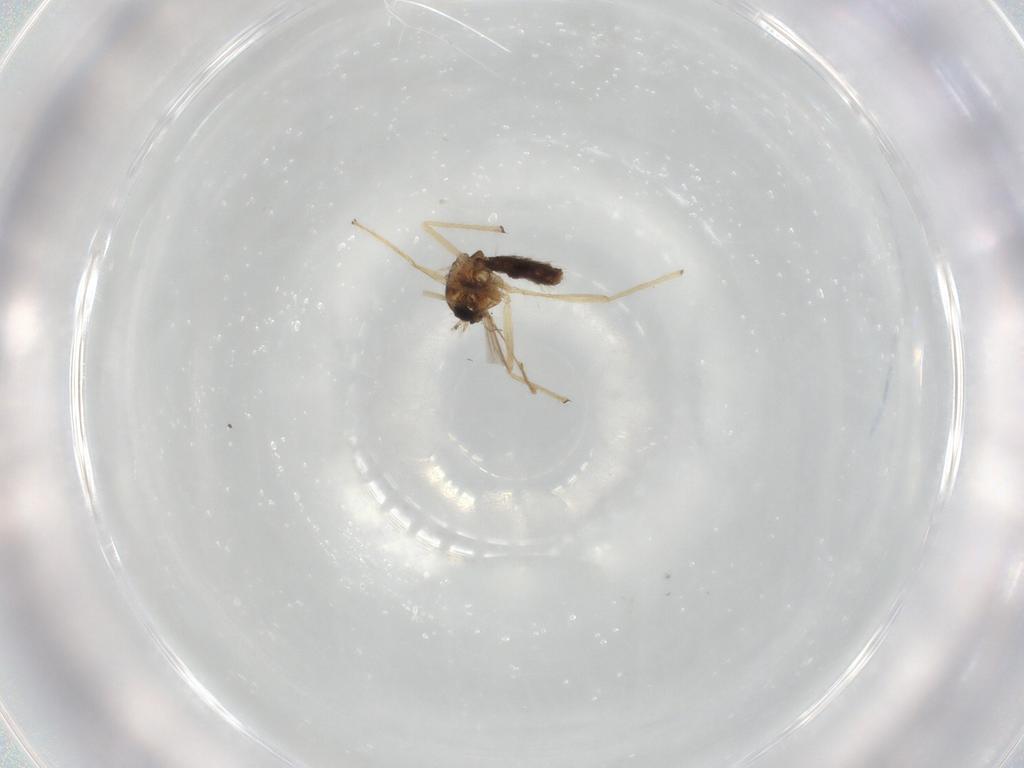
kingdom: Animalia
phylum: Arthropoda
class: Insecta
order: Diptera
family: Chironomidae
